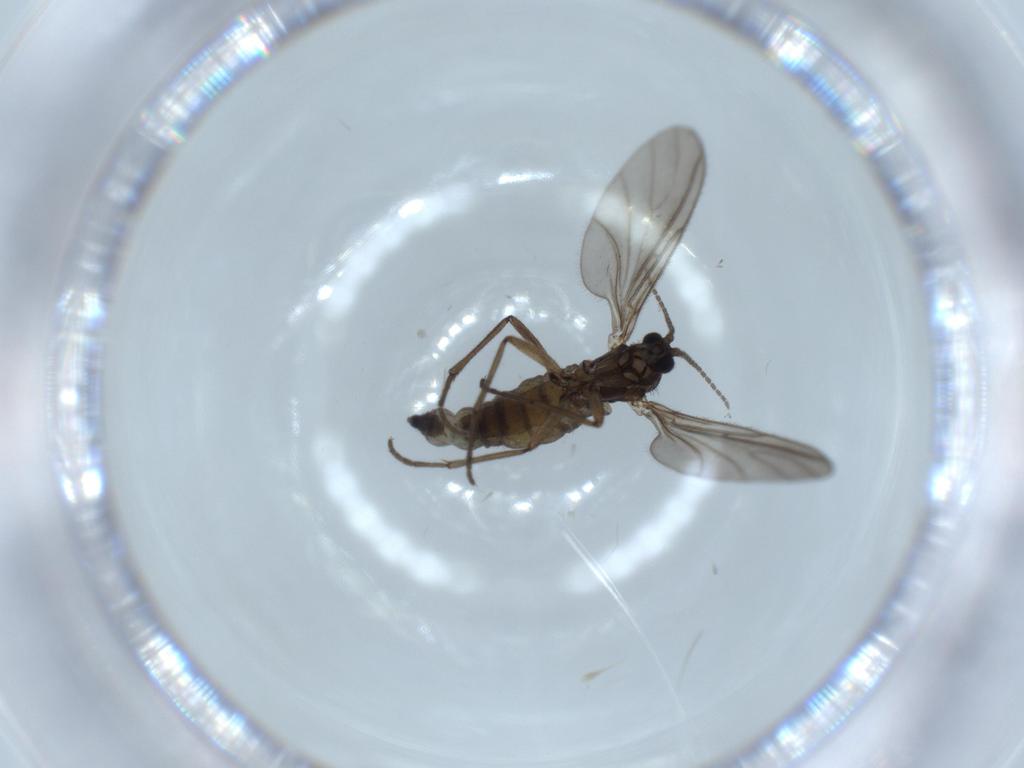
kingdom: Animalia
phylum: Arthropoda
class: Insecta
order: Diptera
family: Sciaridae
